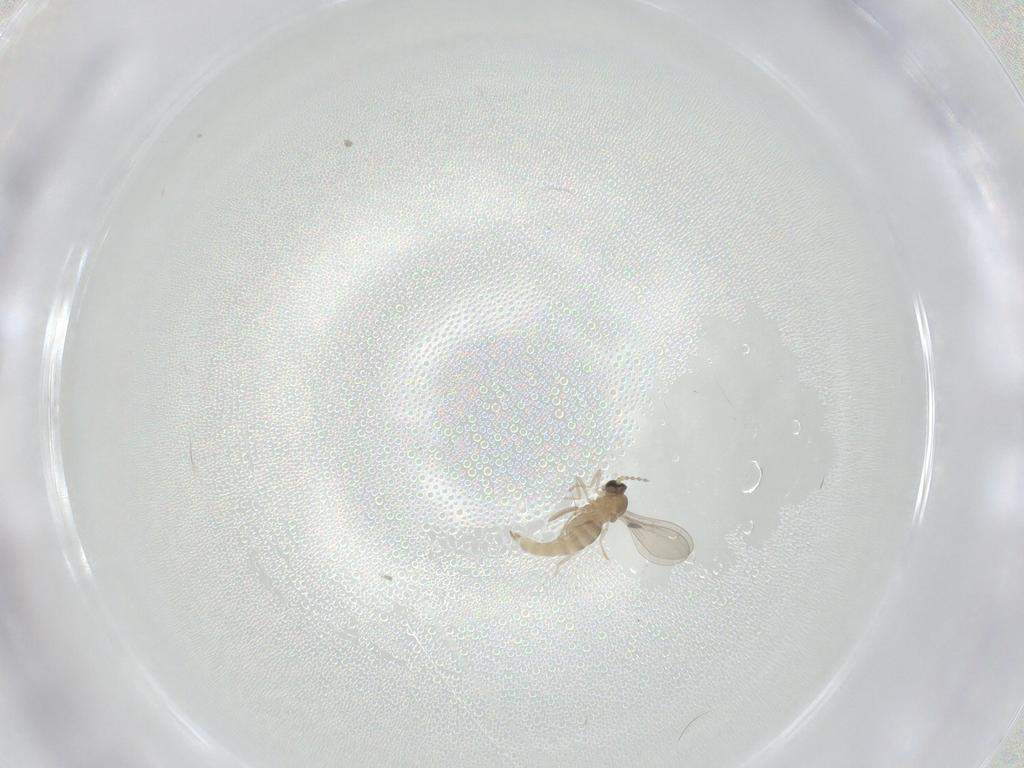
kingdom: Animalia
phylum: Arthropoda
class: Insecta
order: Diptera
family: Cecidomyiidae
